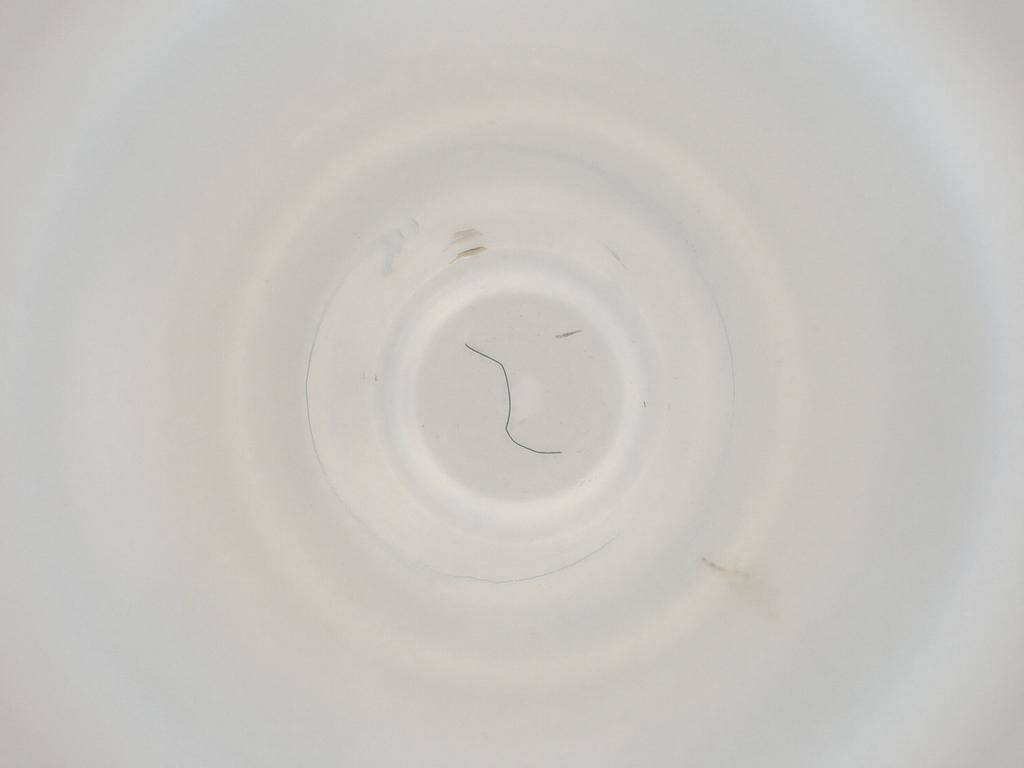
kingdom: Animalia
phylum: Arthropoda
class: Insecta
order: Diptera
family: Cecidomyiidae
